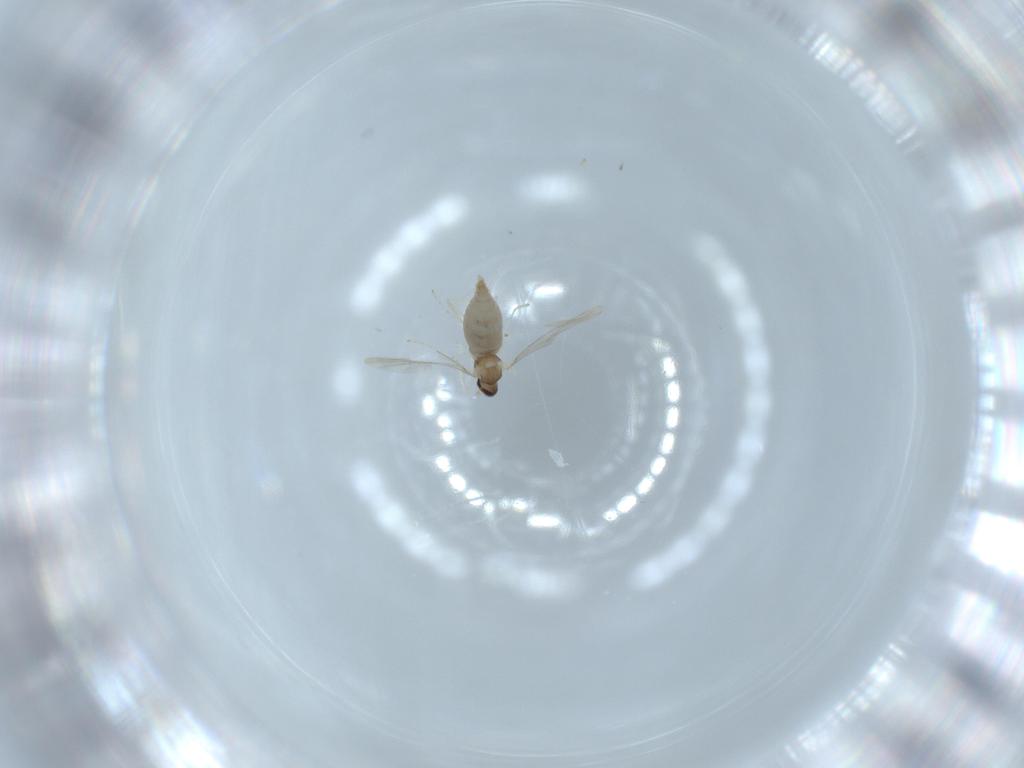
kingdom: Animalia
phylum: Arthropoda
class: Insecta
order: Diptera
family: Cecidomyiidae
